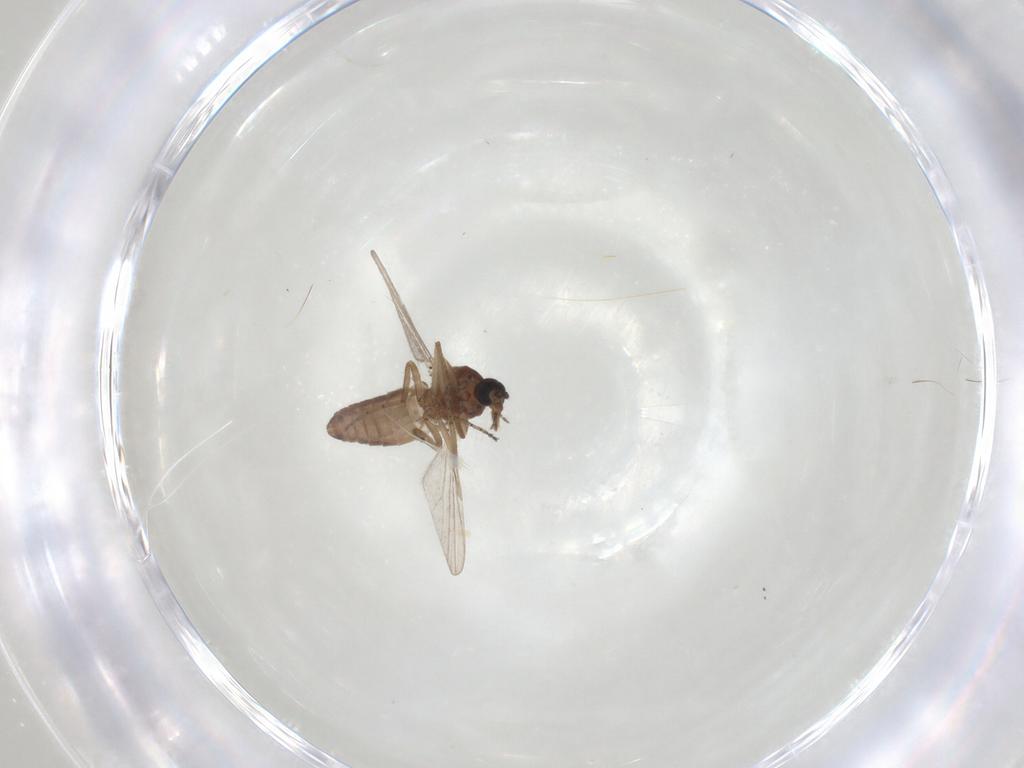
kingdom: Animalia
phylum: Arthropoda
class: Insecta
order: Diptera
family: Ceratopogonidae
